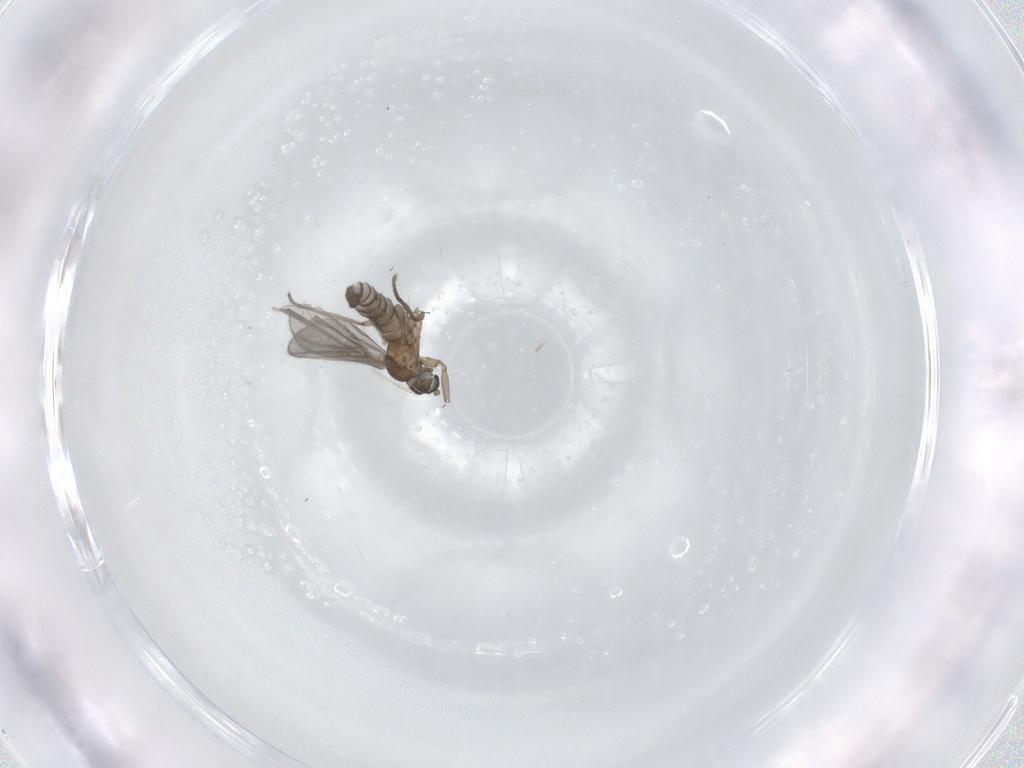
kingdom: Animalia
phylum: Arthropoda
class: Insecta
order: Diptera
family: Sciaridae
